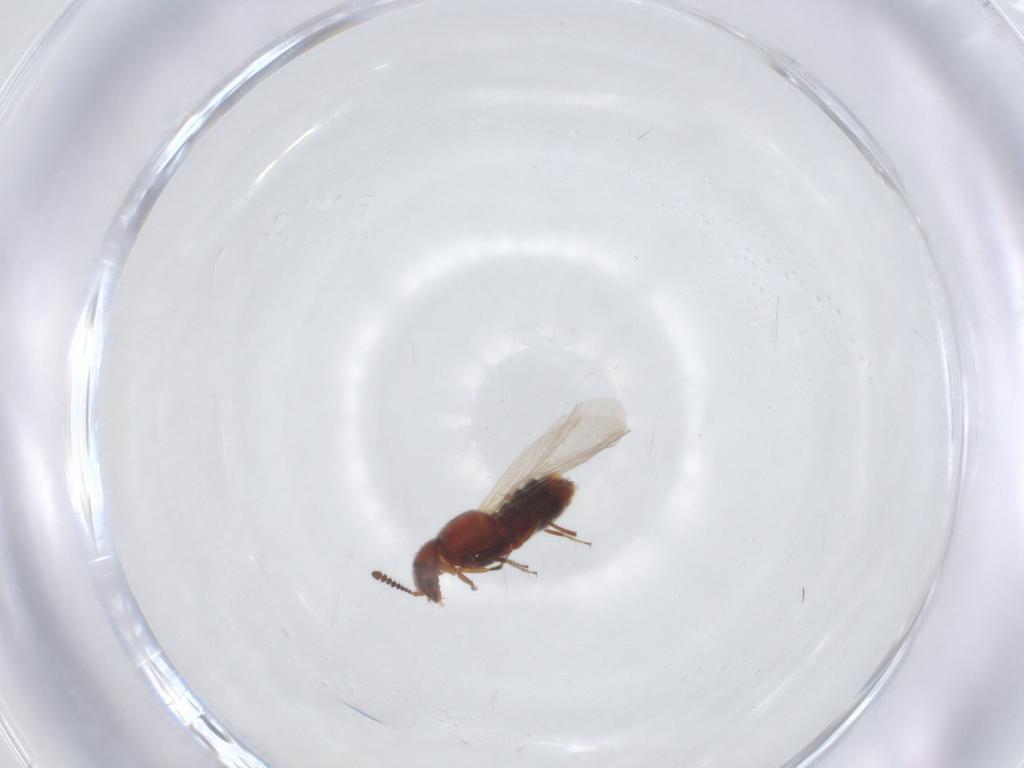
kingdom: Animalia
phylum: Arthropoda
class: Insecta
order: Coleoptera
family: Staphylinidae
